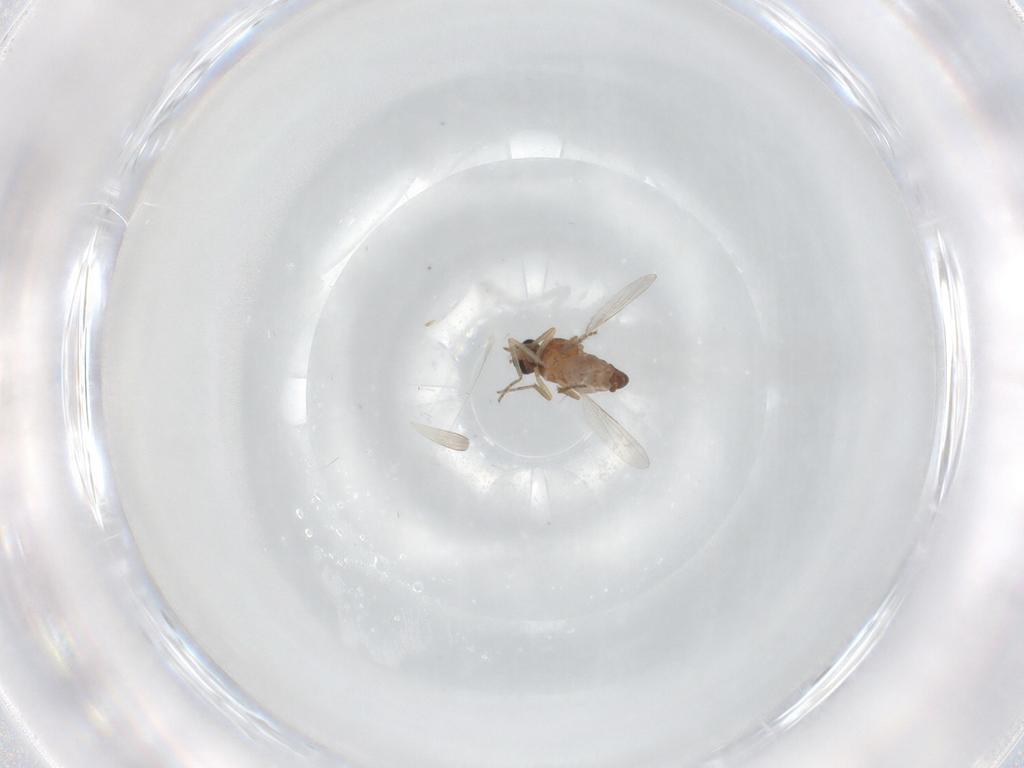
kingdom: Animalia
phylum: Arthropoda
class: Insecta
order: Diptera
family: Ceratopogonidae
